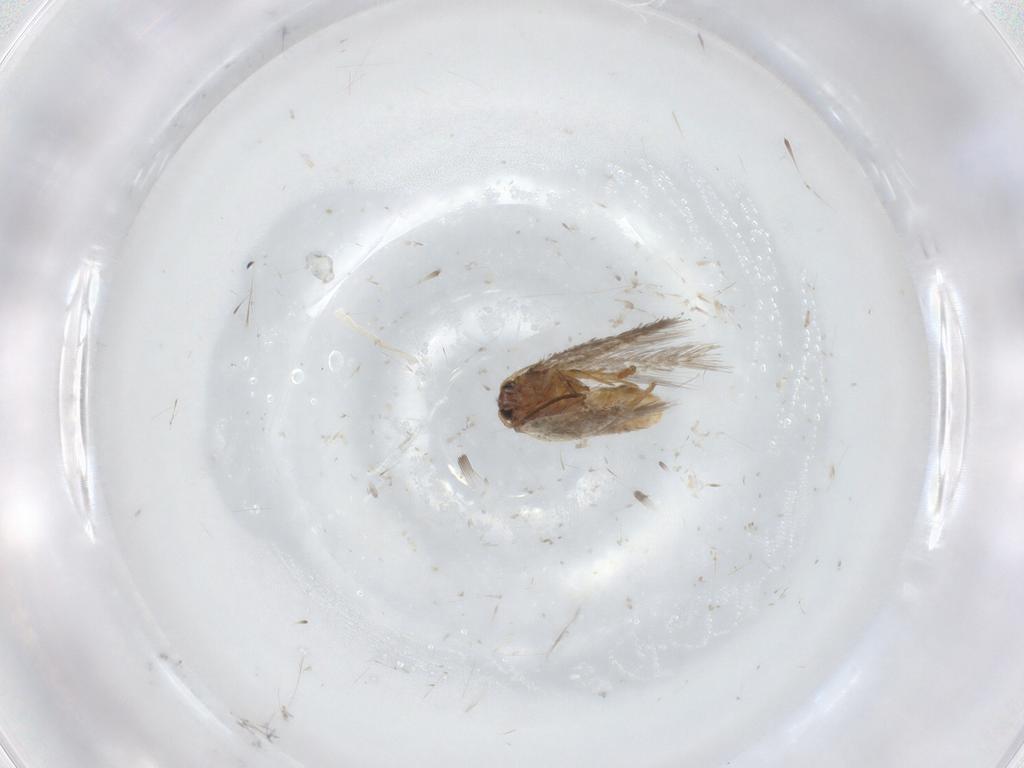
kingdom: Animalia
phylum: Arthropoda
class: Insecta
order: Lepidoptera
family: Nepticulidae
